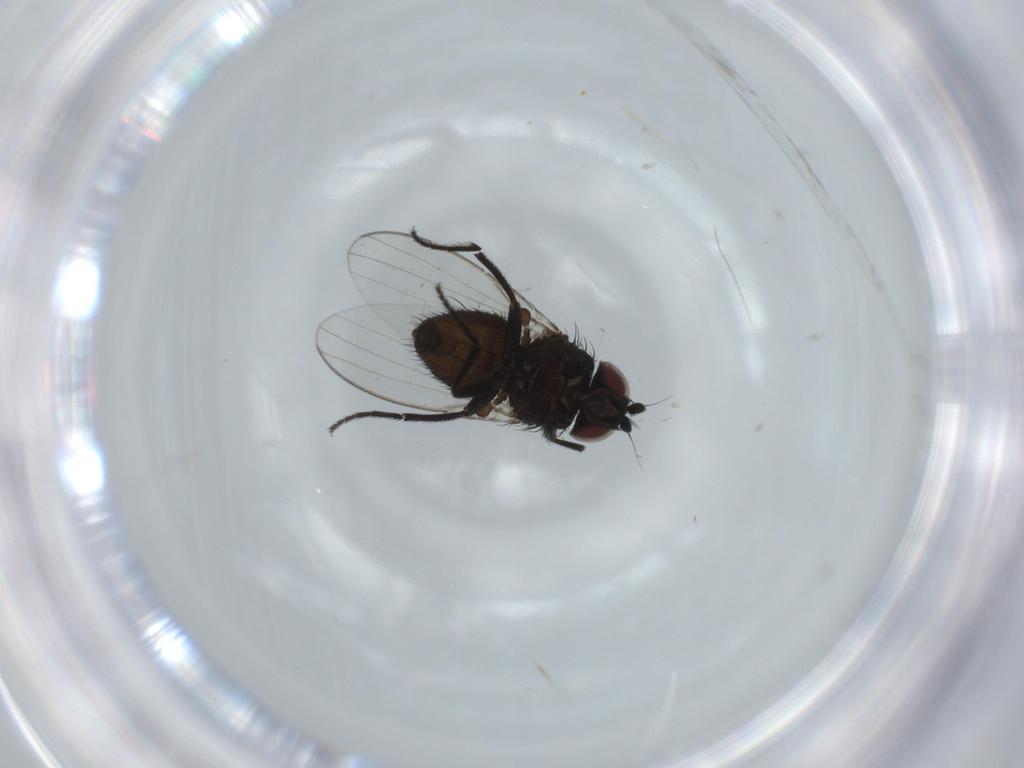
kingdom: Animalia
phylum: Arthropoda
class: Insecta
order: Diptera
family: Milichiidae
